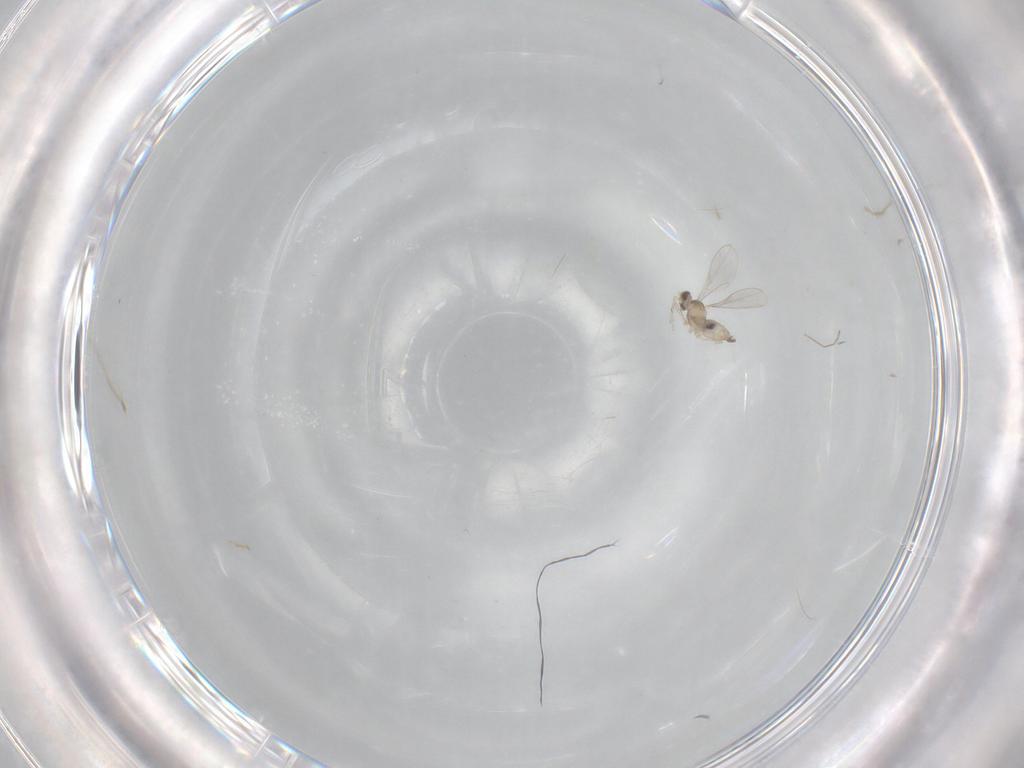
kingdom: Animalia
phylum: Arthropoda
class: Insecta
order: Diptera
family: Cecidomyiidae
